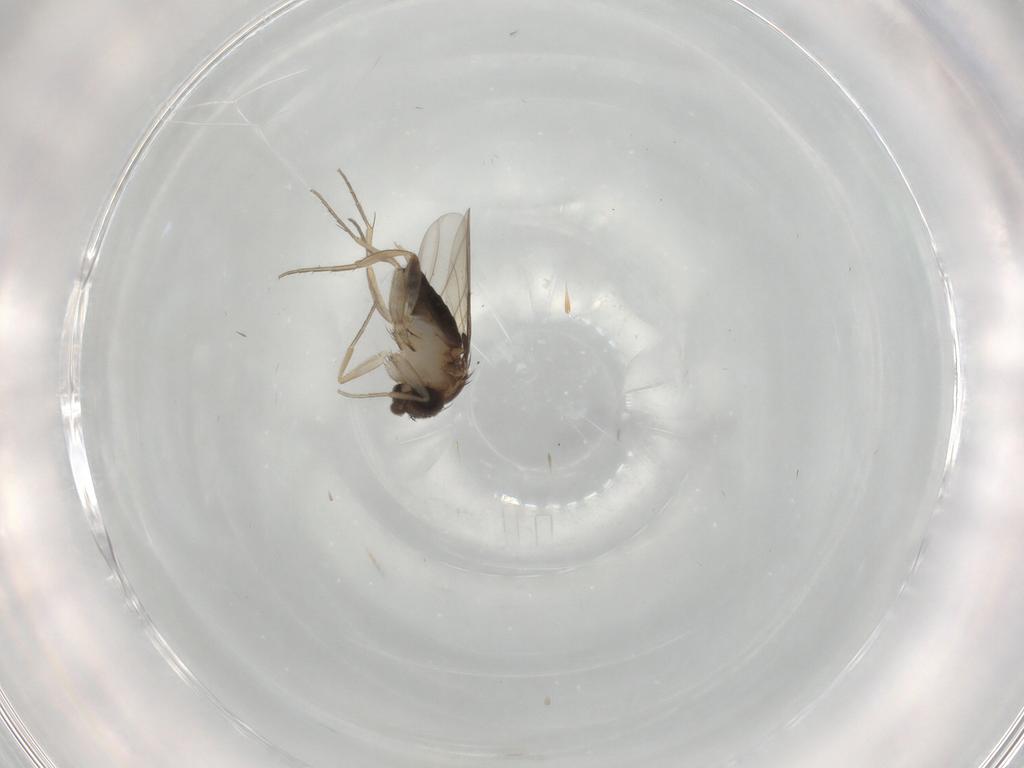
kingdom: Animalia
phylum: Arthropoda
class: Insecta
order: Diptera
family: Phoridae
